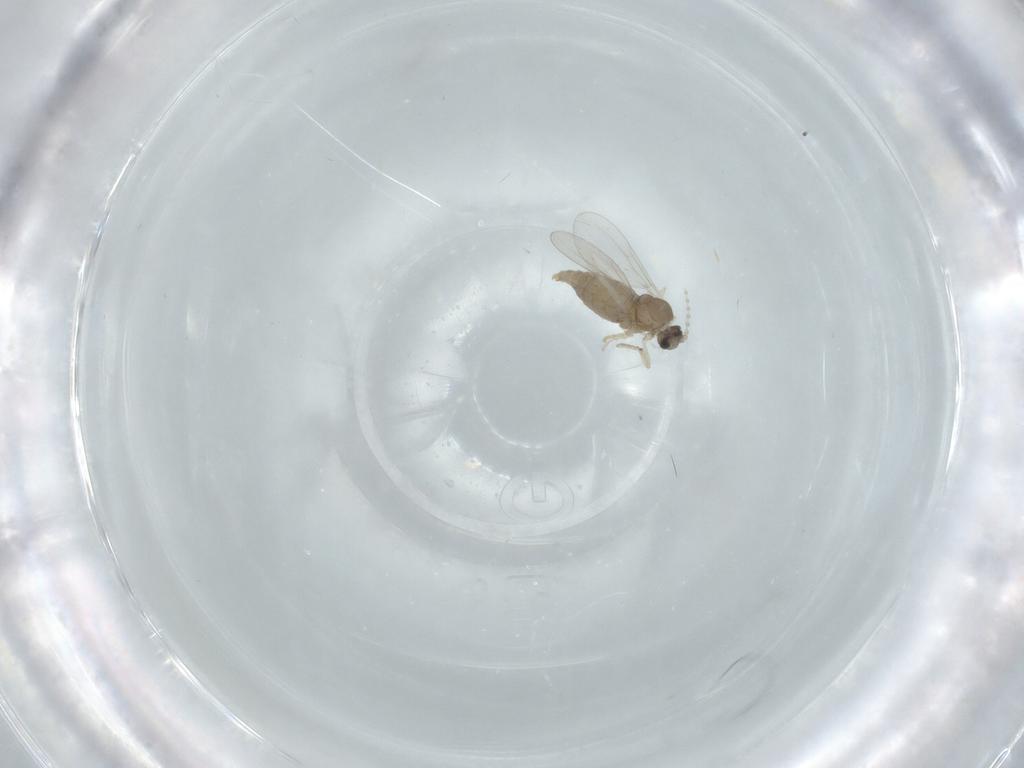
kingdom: Animalia
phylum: Arthropoda
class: Insecta
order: Diptera
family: Cecidomyiidae
